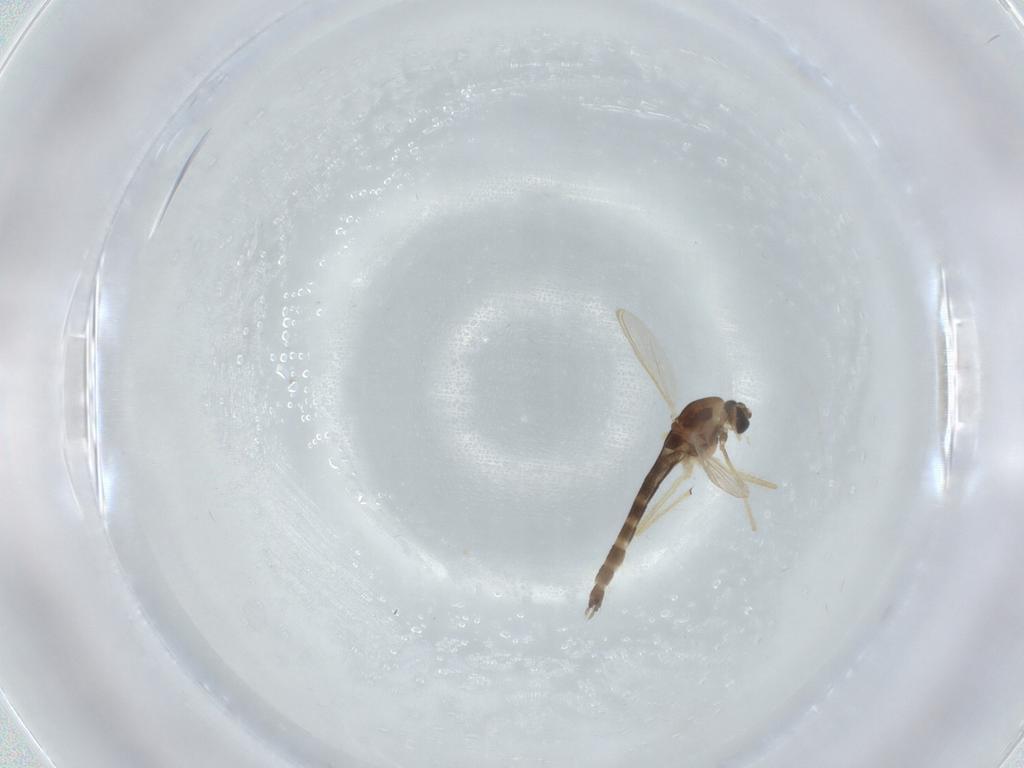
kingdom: Animalia
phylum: Arthropoda
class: Insecta
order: Diptera
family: Chironomidae
